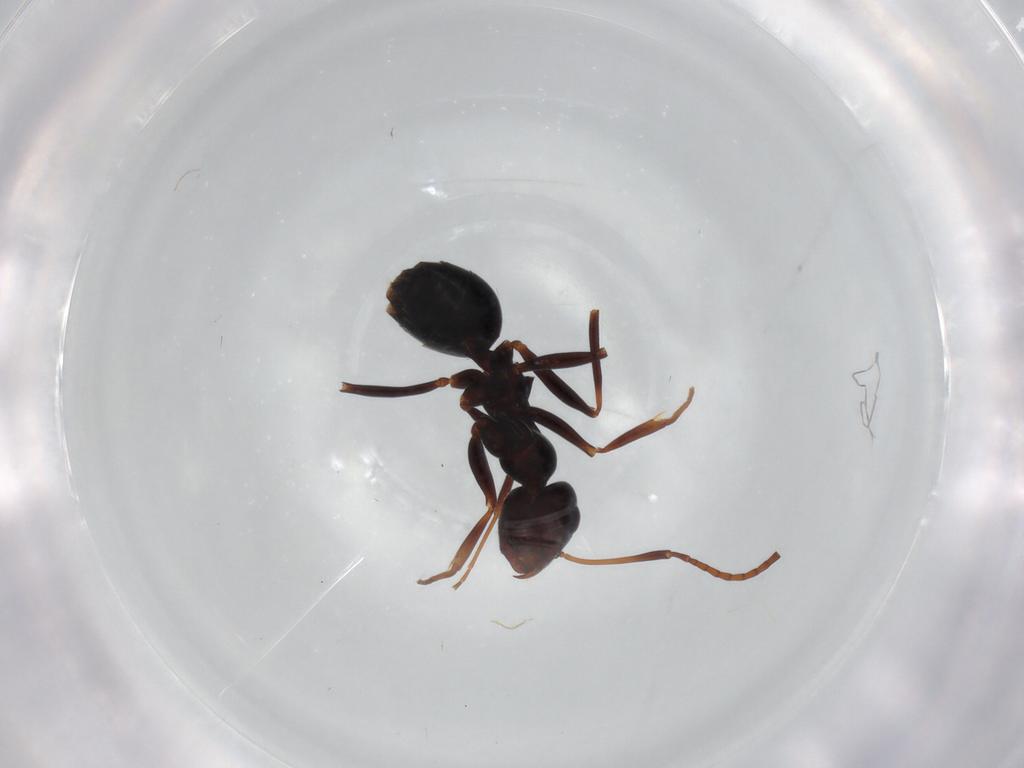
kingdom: Animalia
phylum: Arthropoda
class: Insecta
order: Hymenoptera
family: Formicidae
